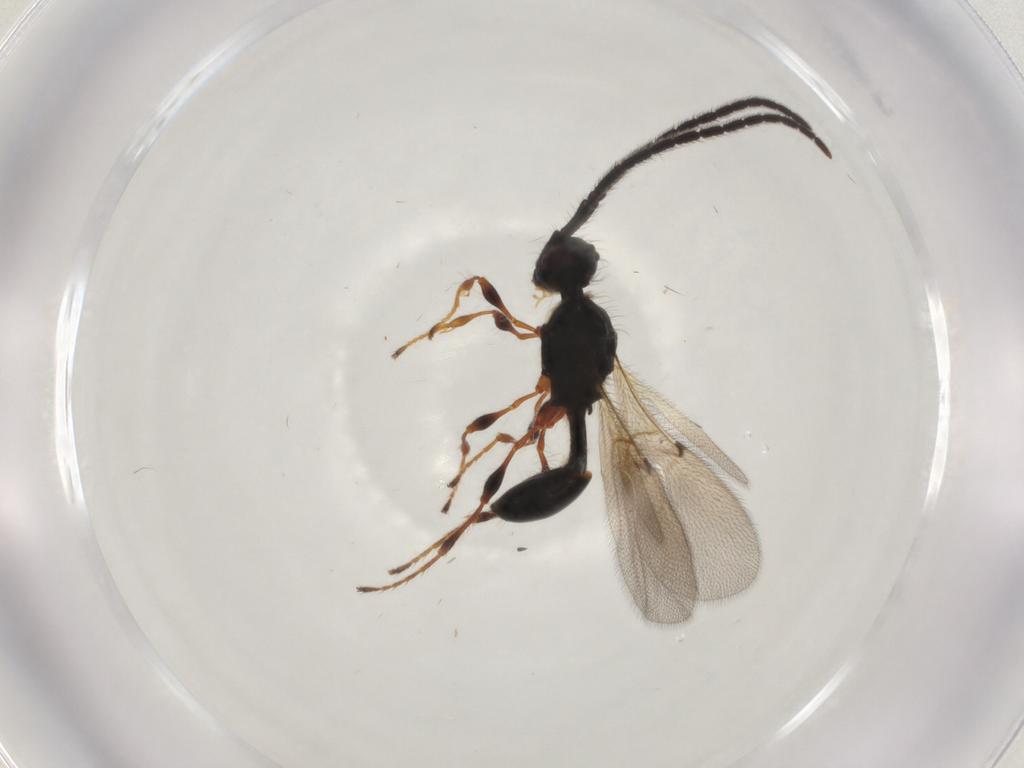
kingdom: Animalia
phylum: Arthropoda
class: Insecta
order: Hymenoptera
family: Diapriidae
